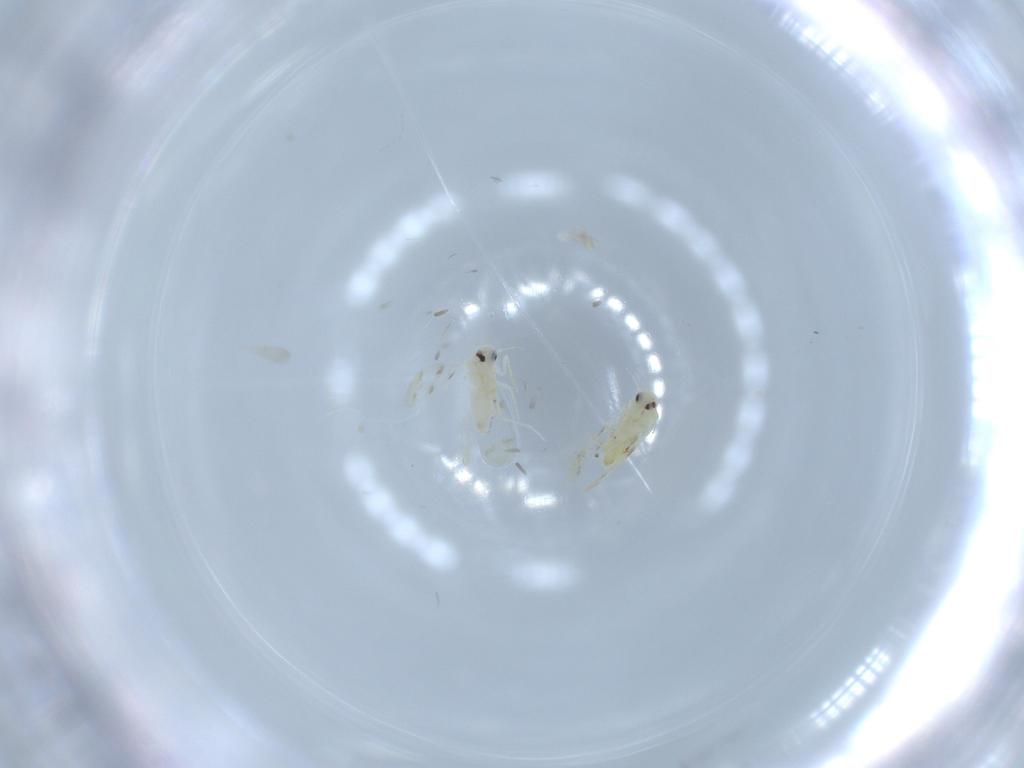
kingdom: Animalia
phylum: Arthropoda
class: Insecta
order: Hemiptera
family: Aleyrodidae
